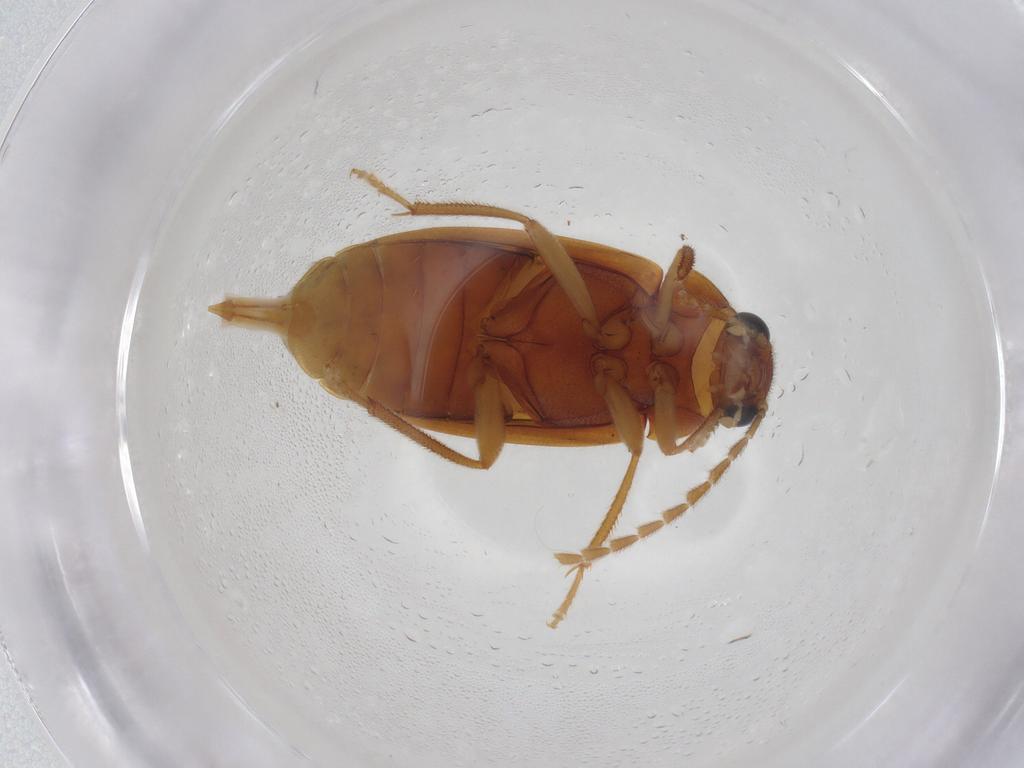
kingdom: Animalia
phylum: Arthropoda
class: Insecta
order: Coleoptera
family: Ptilodactylidae
